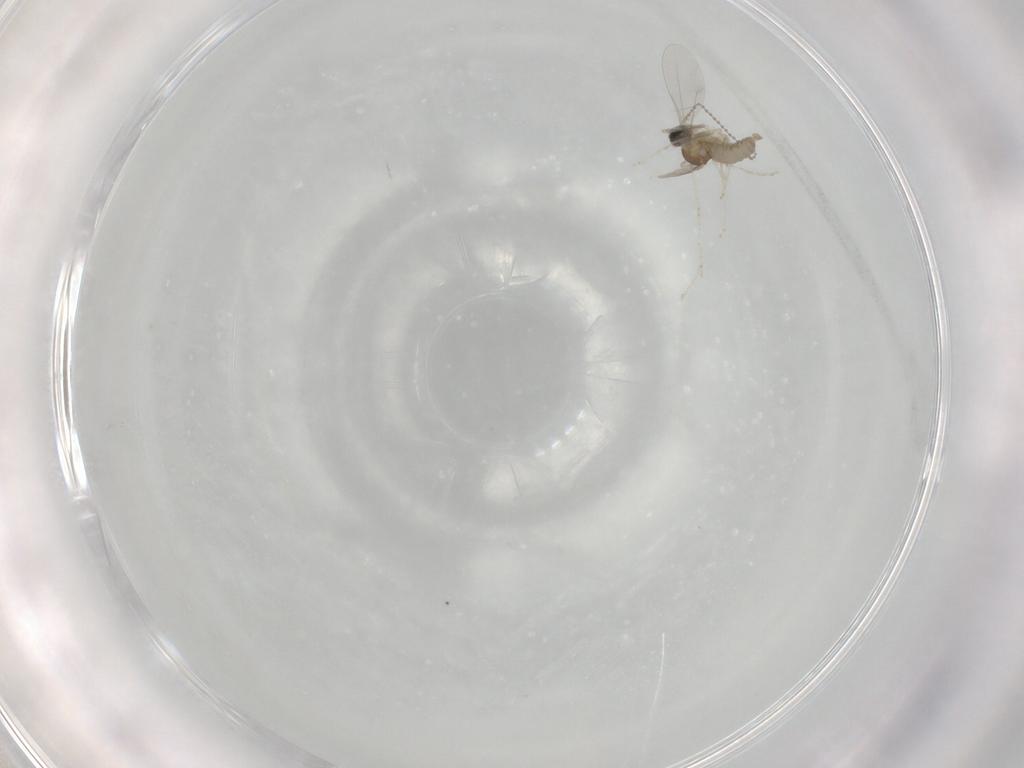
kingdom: Animalia
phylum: Arthropoda
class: Insecta
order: Diptera
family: Cecidomyiidae
